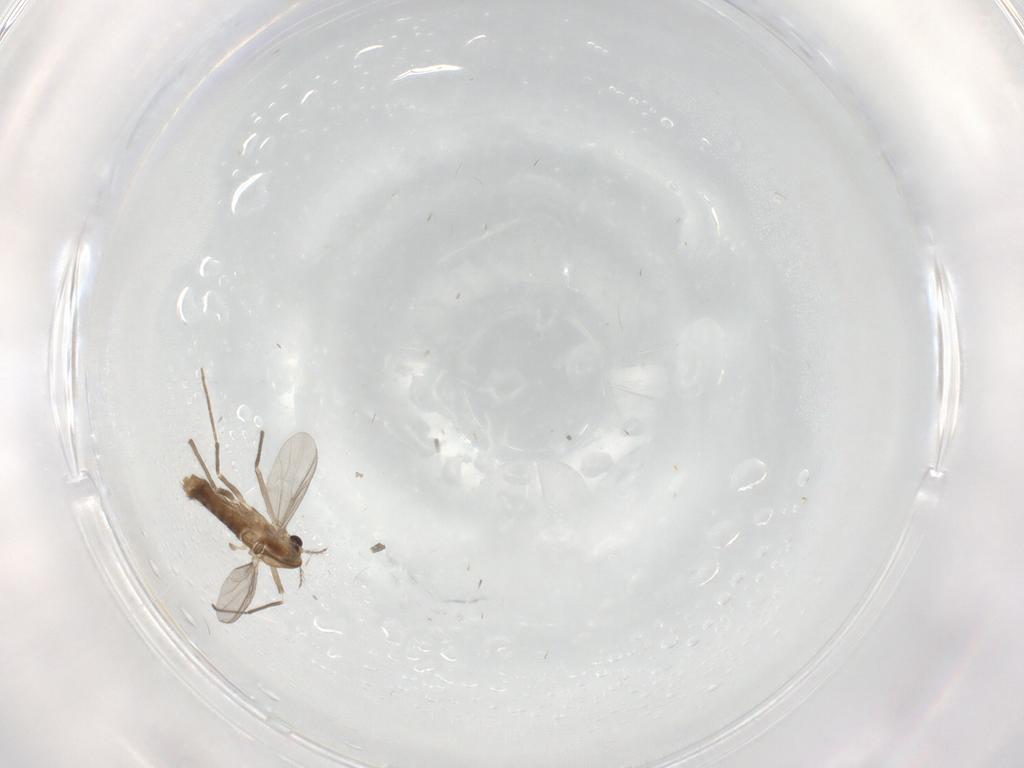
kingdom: Animalia
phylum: Arthropoda
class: Insecta
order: Diptera
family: Chironomidae
